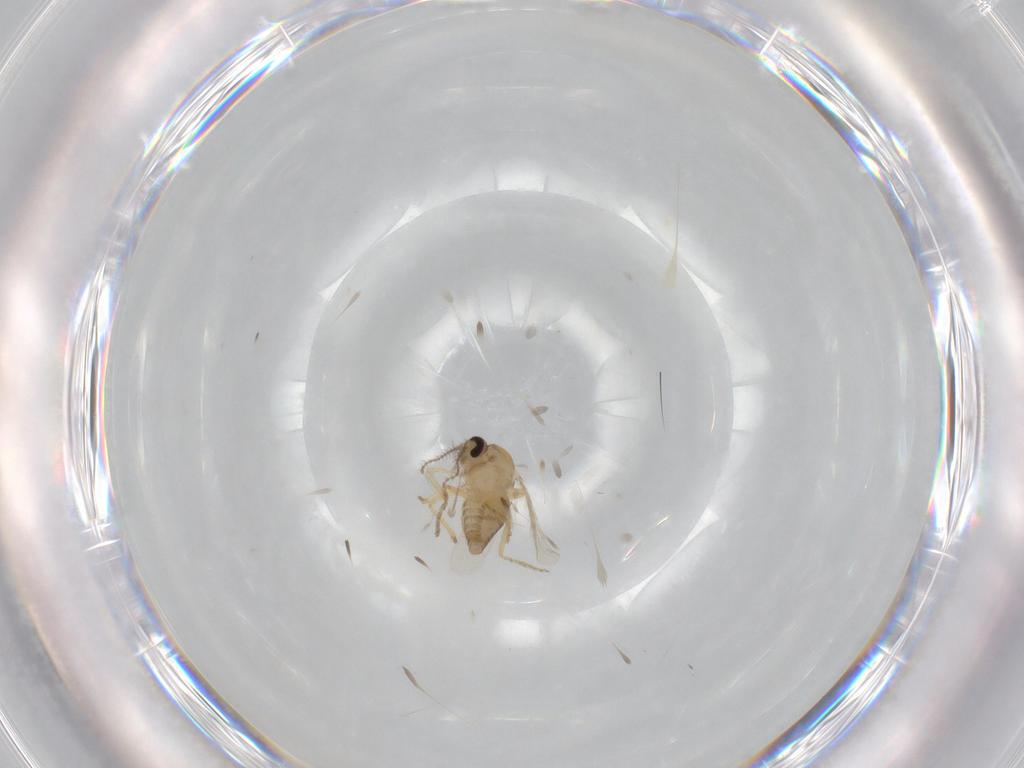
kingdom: Animalia
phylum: Arthropoda
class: Insecta
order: Diptera
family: Ceratopogonidae
